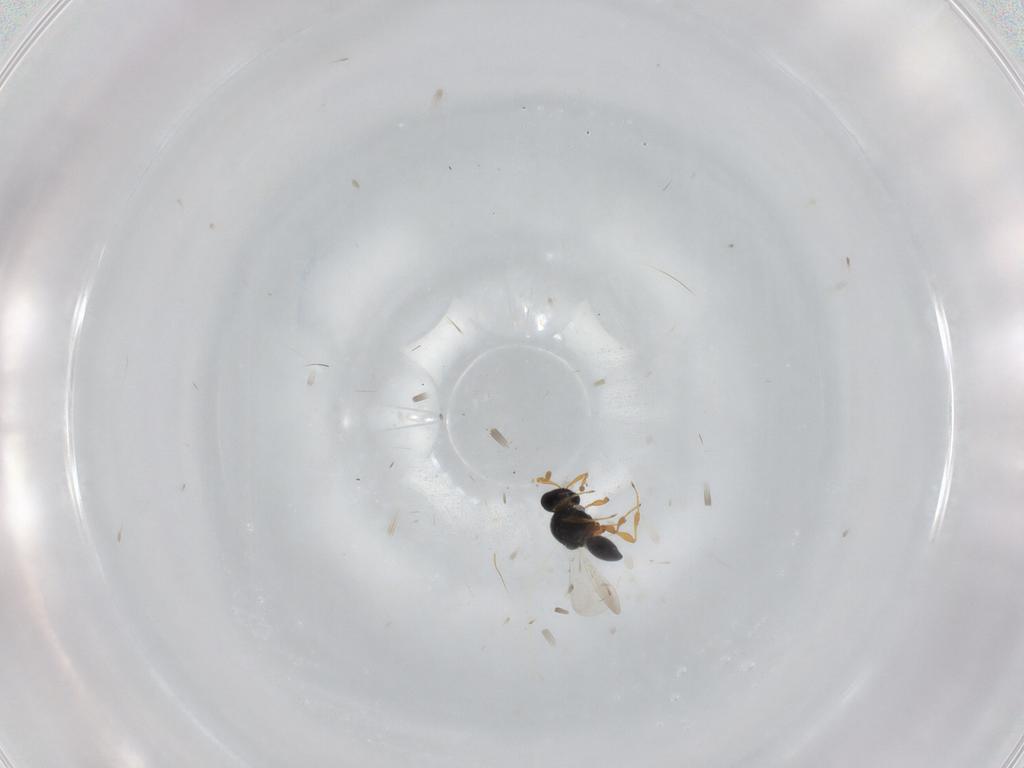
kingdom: Animalia
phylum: Arthropoda
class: Insecta
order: Hymenoptera
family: Platygastridae
